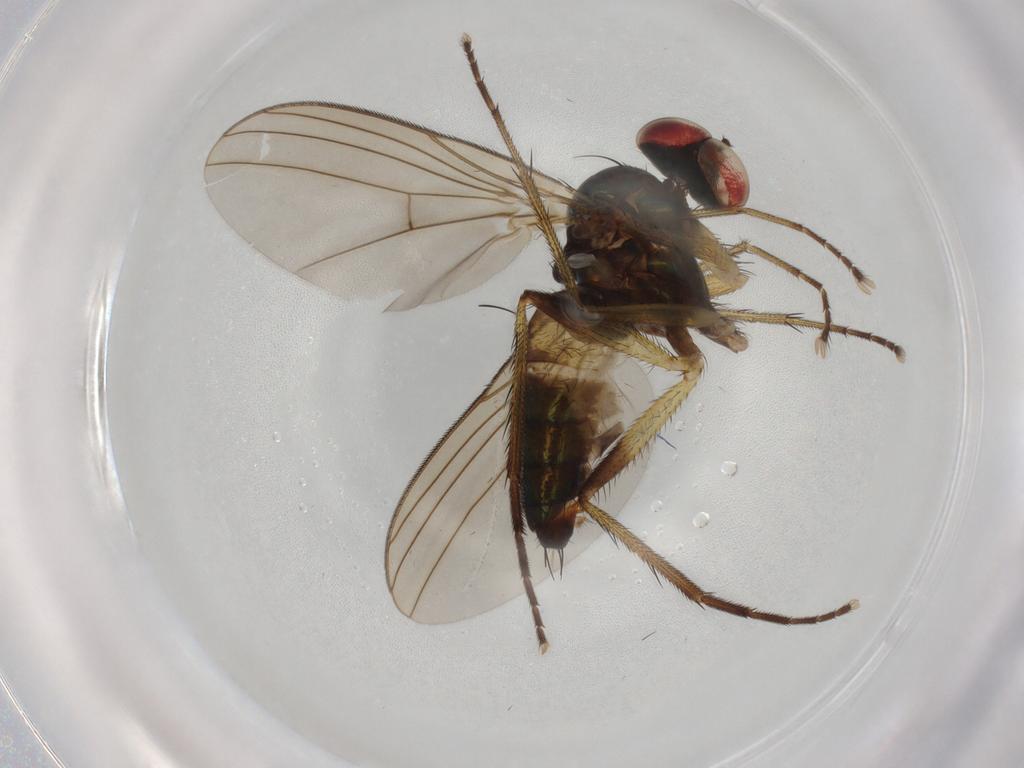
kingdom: Animalia
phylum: Arthropoda
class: Insecta
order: Diptera
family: Dolichopodidae
